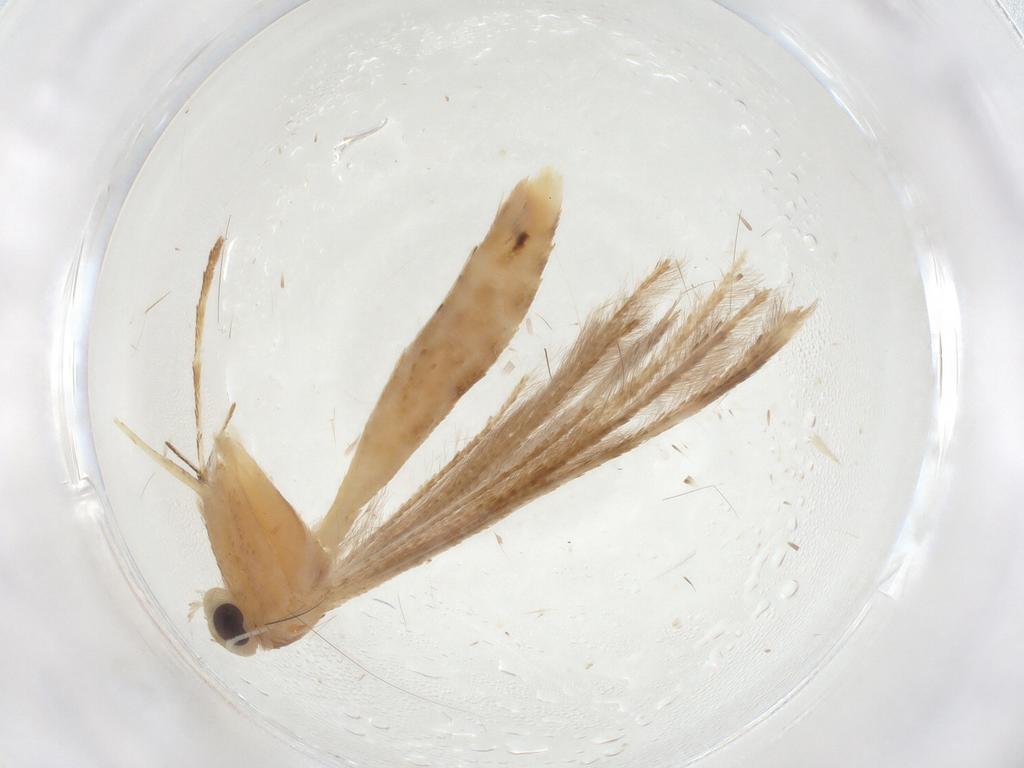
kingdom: Animalia
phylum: Arthropoda
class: Insecta
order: Lepidoptera
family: Pterophoridae
